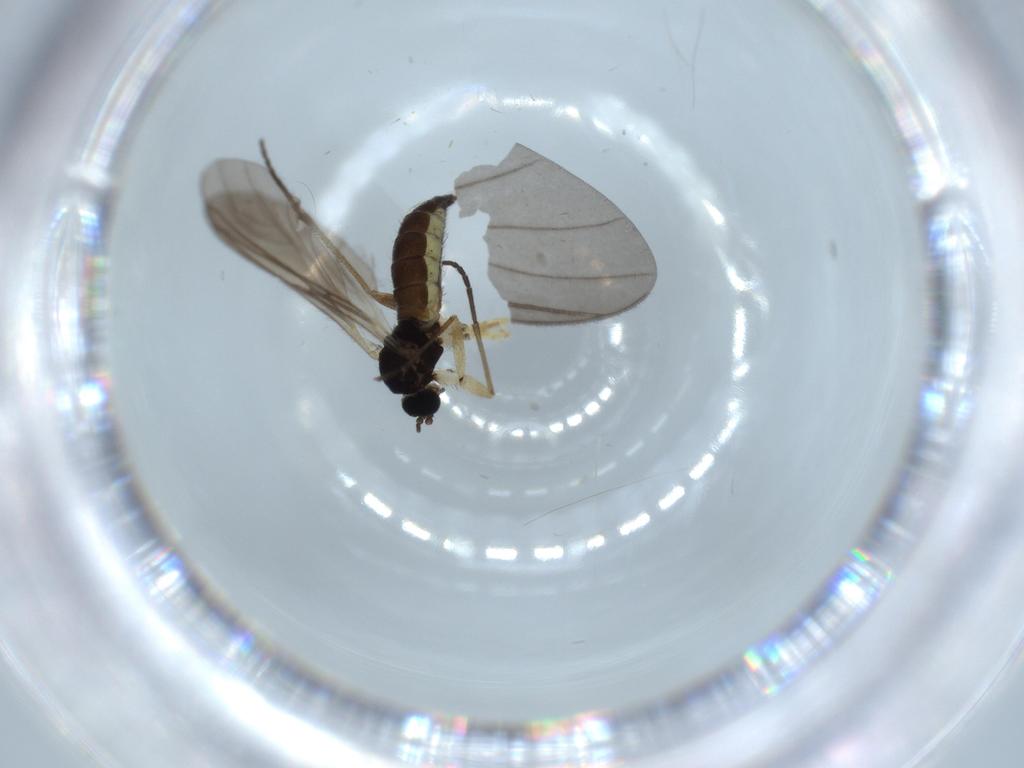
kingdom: Animalia
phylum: Arthropoda
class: Insecta
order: Diptera
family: Sciaridae
